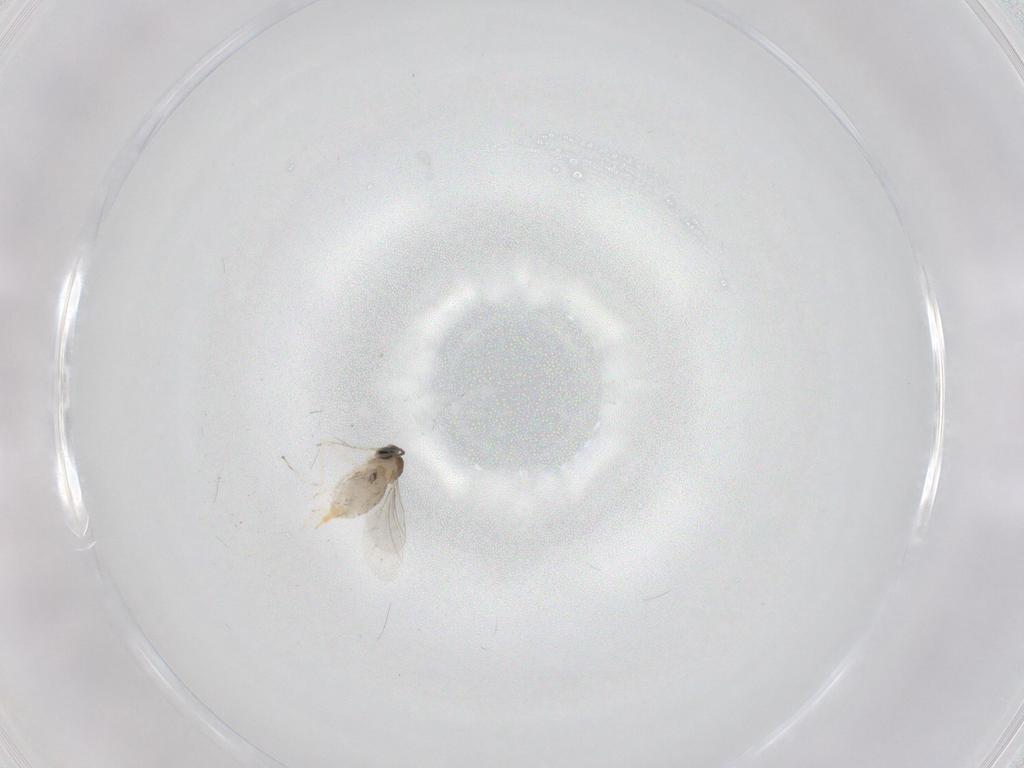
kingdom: Animalia
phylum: Arthropoda
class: Insecta
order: Diptera
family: Cecidomyiidae
